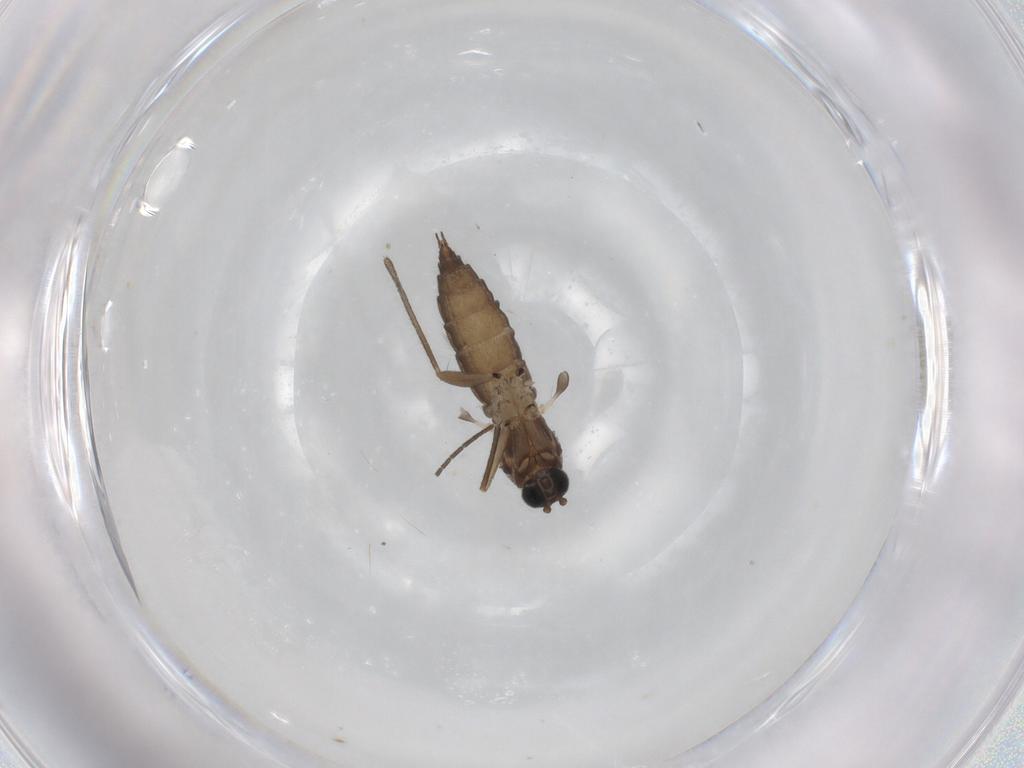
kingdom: Animalia
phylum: Arthropoda
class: Insecta
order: Diptera
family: Sciaridae
